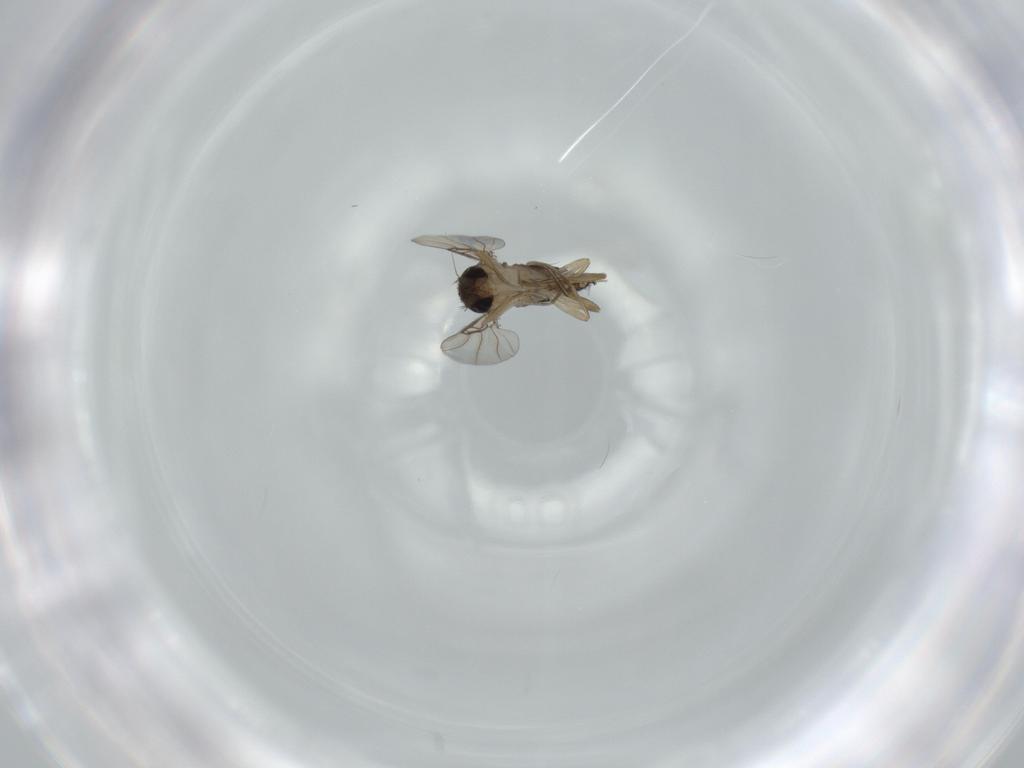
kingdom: Animalia
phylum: Arthropoda
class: Insecta
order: Diptera
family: Phoridae
